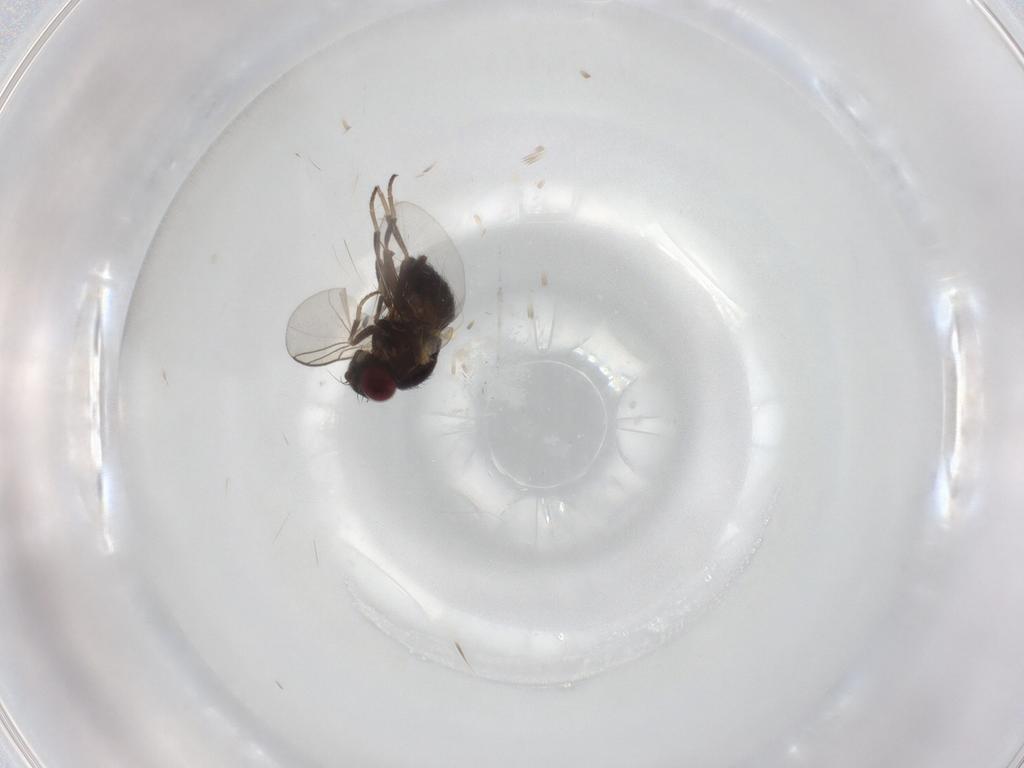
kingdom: Animalia
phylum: Arthropoda
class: Insecta
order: Diptera
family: Agromyzidae
